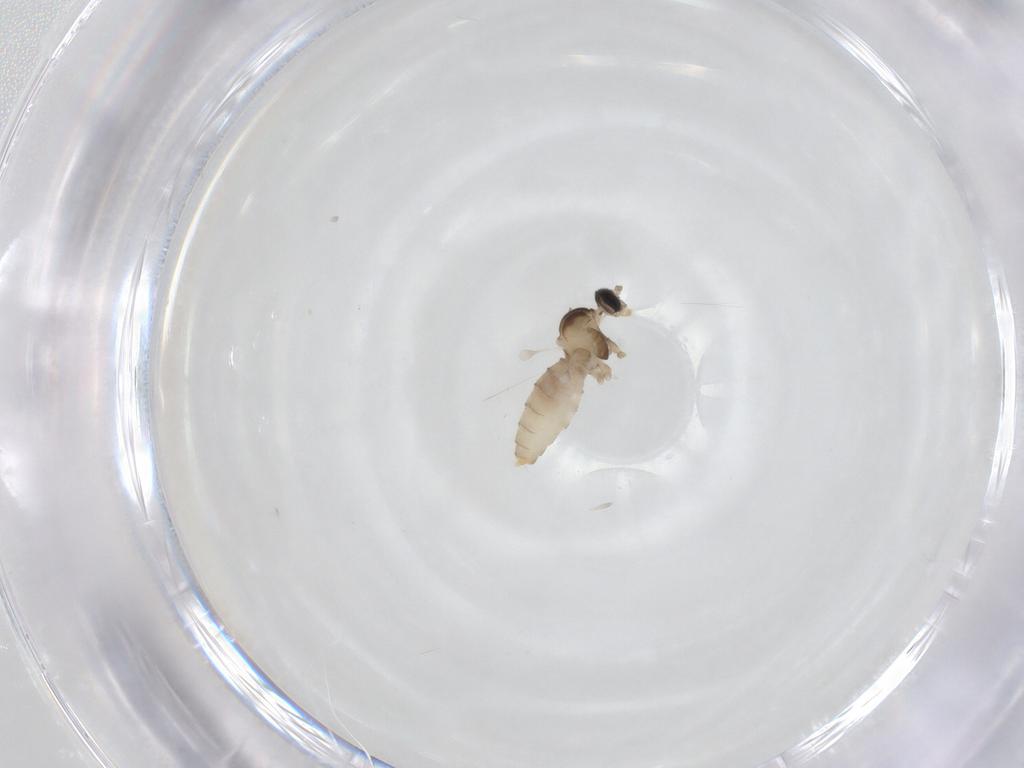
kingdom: Animalia
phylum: Arthropoda
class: Insecta
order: Diptera
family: Cecidomyiidae
